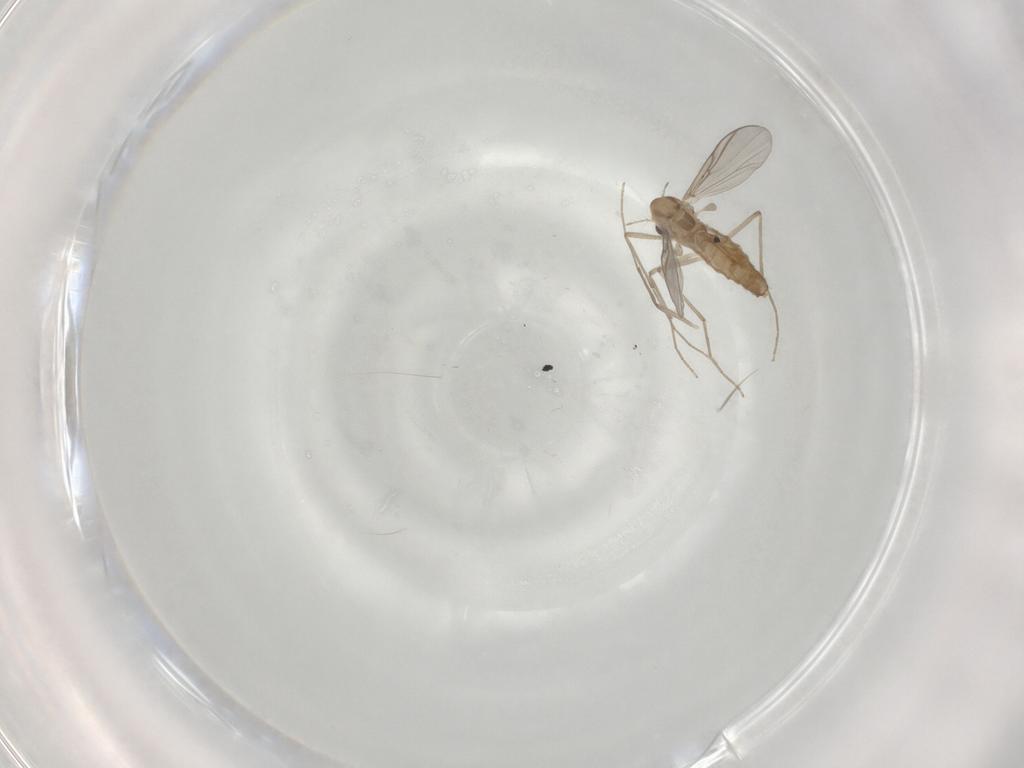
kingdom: Animalia
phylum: Arthropoda
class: Insecta
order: Diptera
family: Chironomidae
